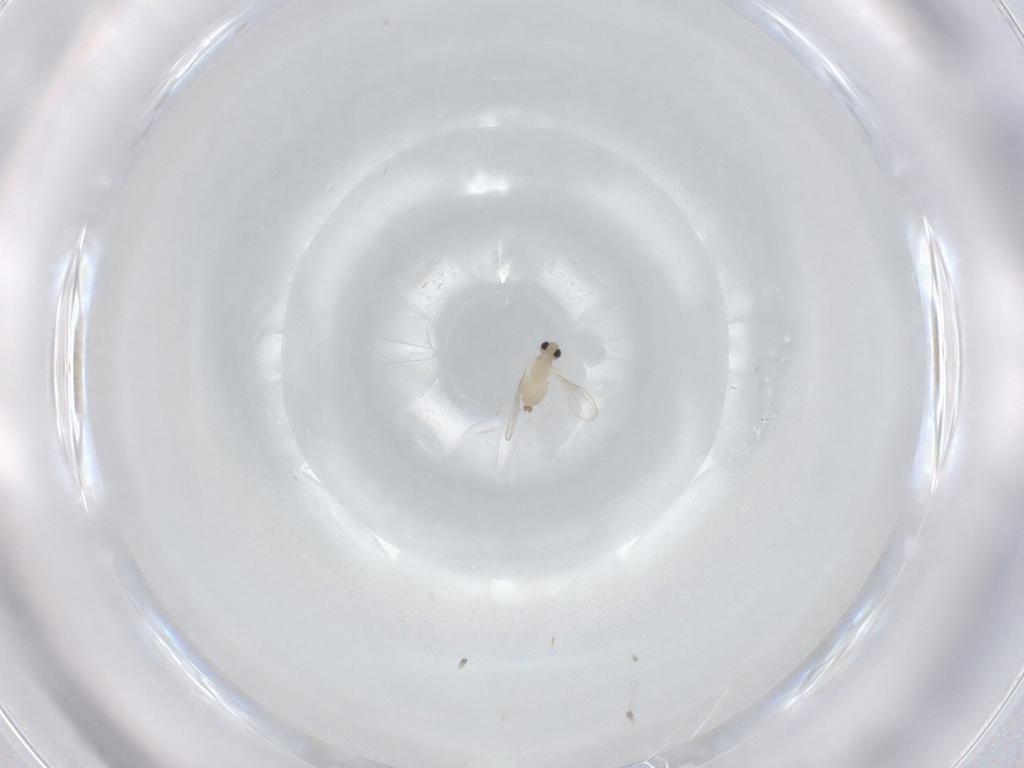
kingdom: Animalia
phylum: Arthropoda
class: Insecta
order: Diptera
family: Cecidomyiidae
